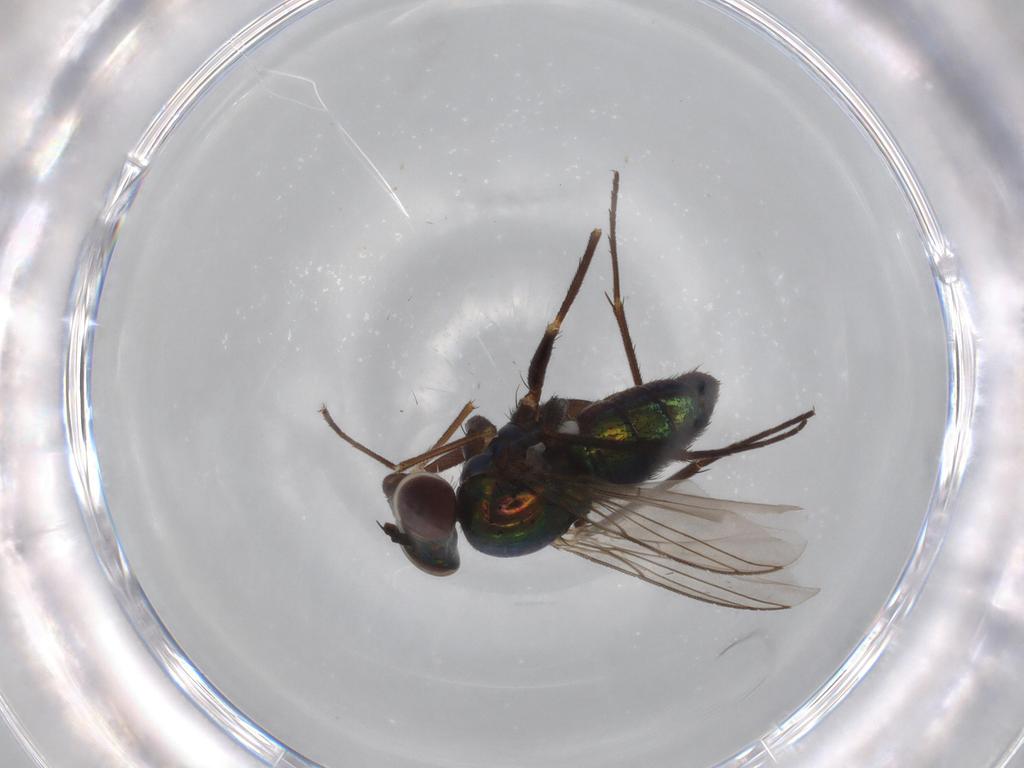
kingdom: Animalia
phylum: Arthropoda
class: Insecta
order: Diptera
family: Dolichopodidae
